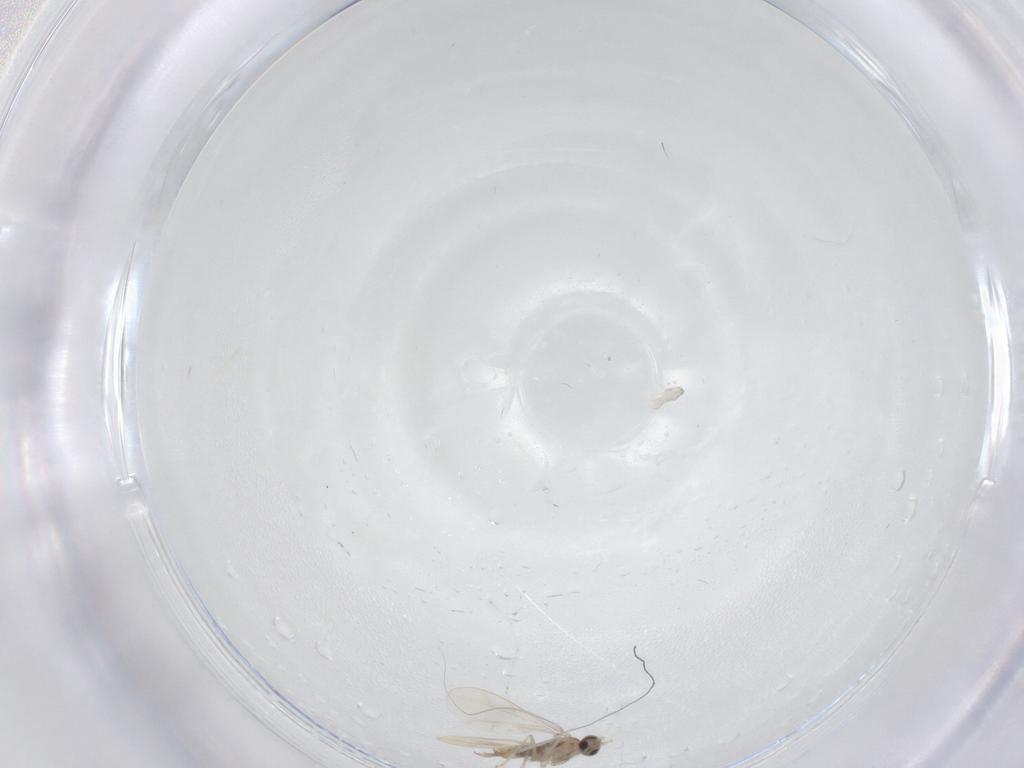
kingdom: Animalia
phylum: Arthropoda
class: Insecta
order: Diptera
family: Cecidomyiidae
